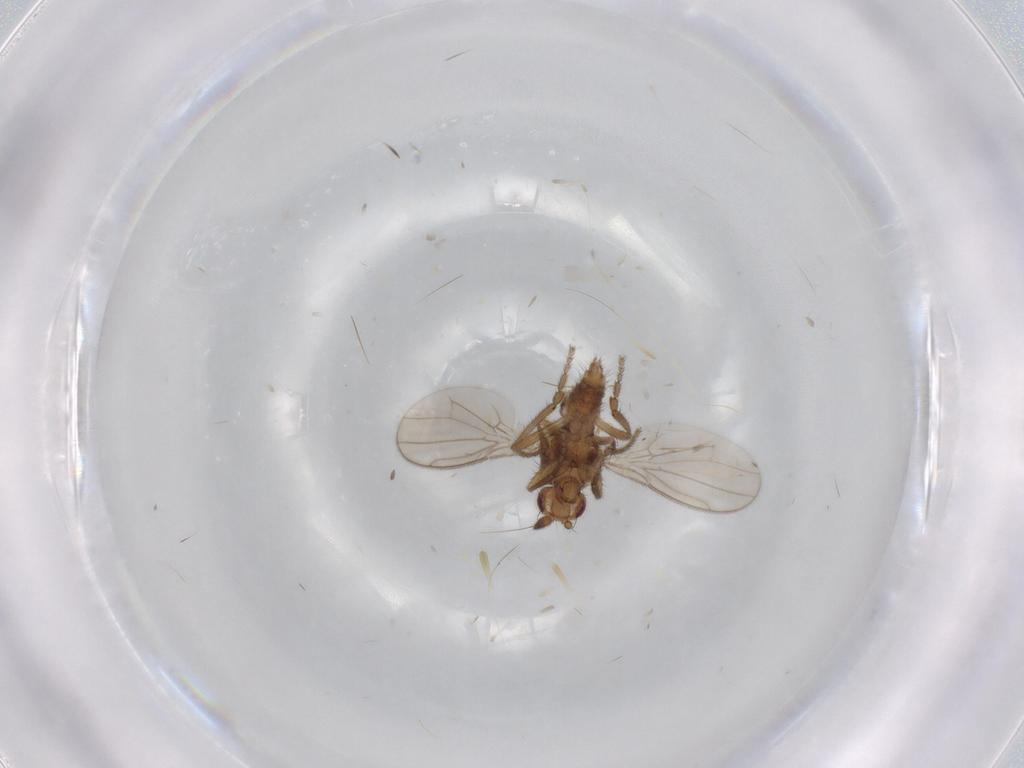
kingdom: Animalia
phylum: Arthropoda
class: Insecta
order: Diptera
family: Sphaeroceridae
